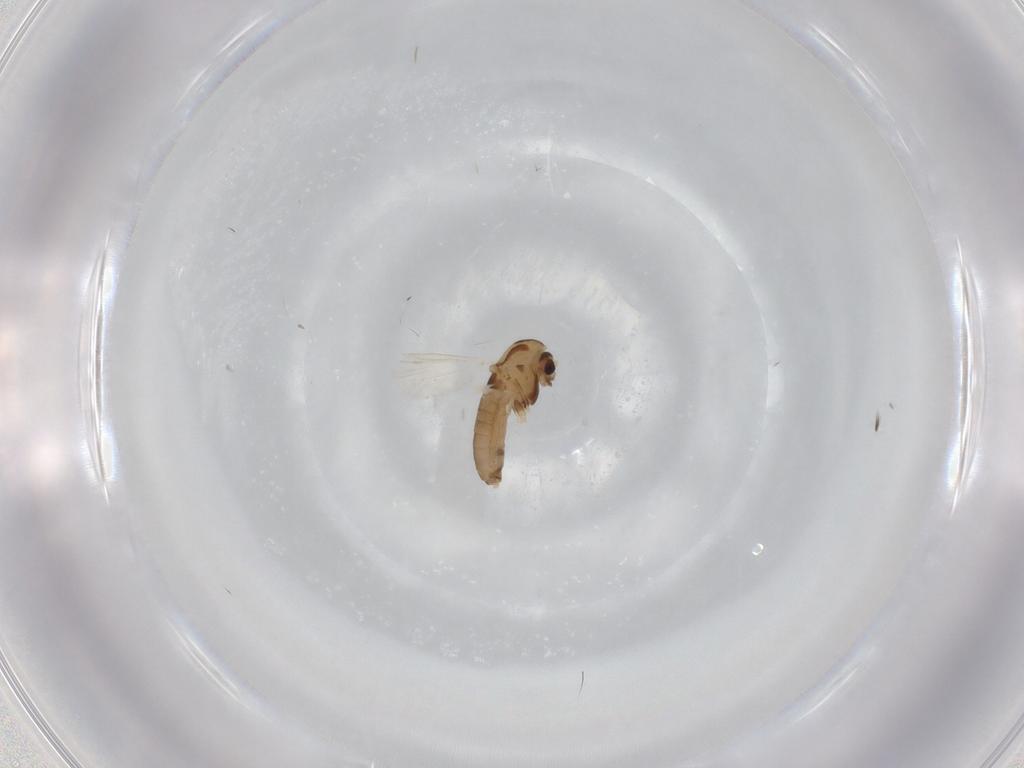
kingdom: Animalia
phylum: Arthropoda
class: Insecta
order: Diptera
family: Chironomidae
